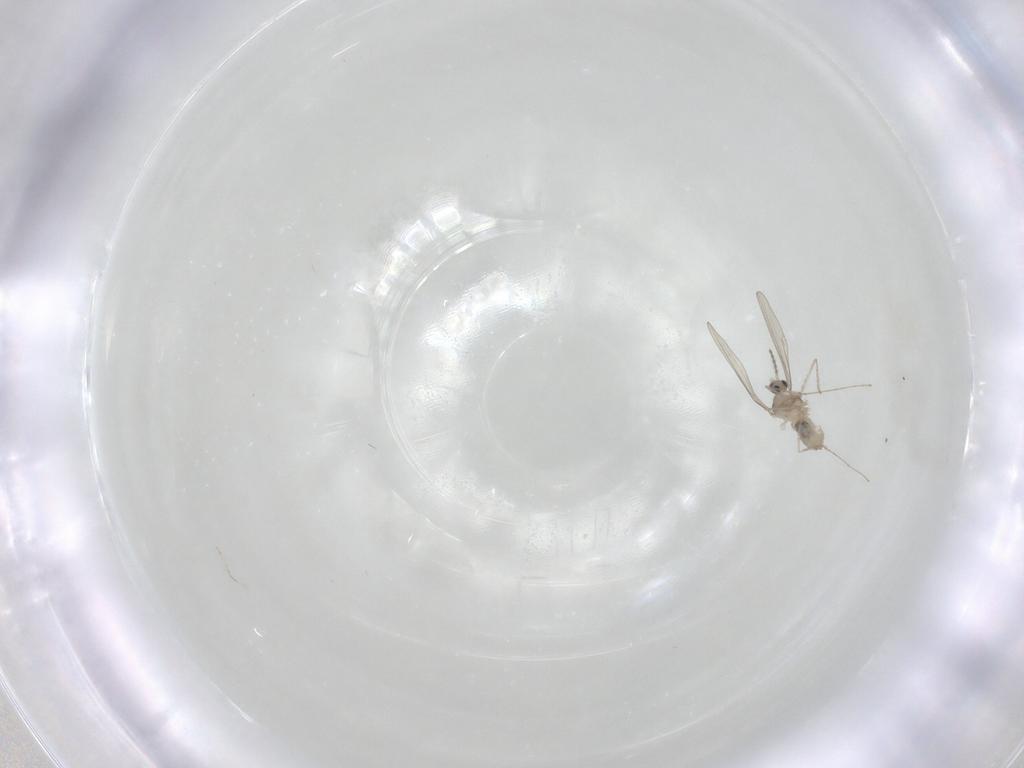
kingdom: Animalia
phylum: Arthropoda
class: Insecta
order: Diptera
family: Cecidomyiidae
